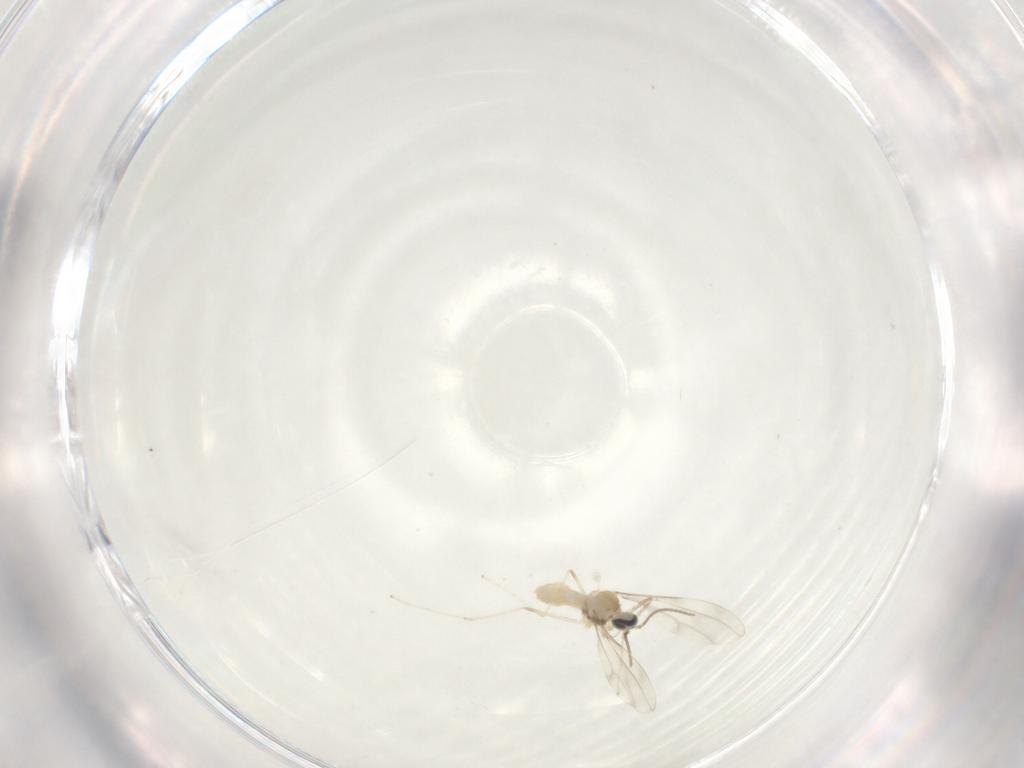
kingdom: Animalia
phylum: Arthropoda
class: Insecta
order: Diptera
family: Cecidomyiidae
